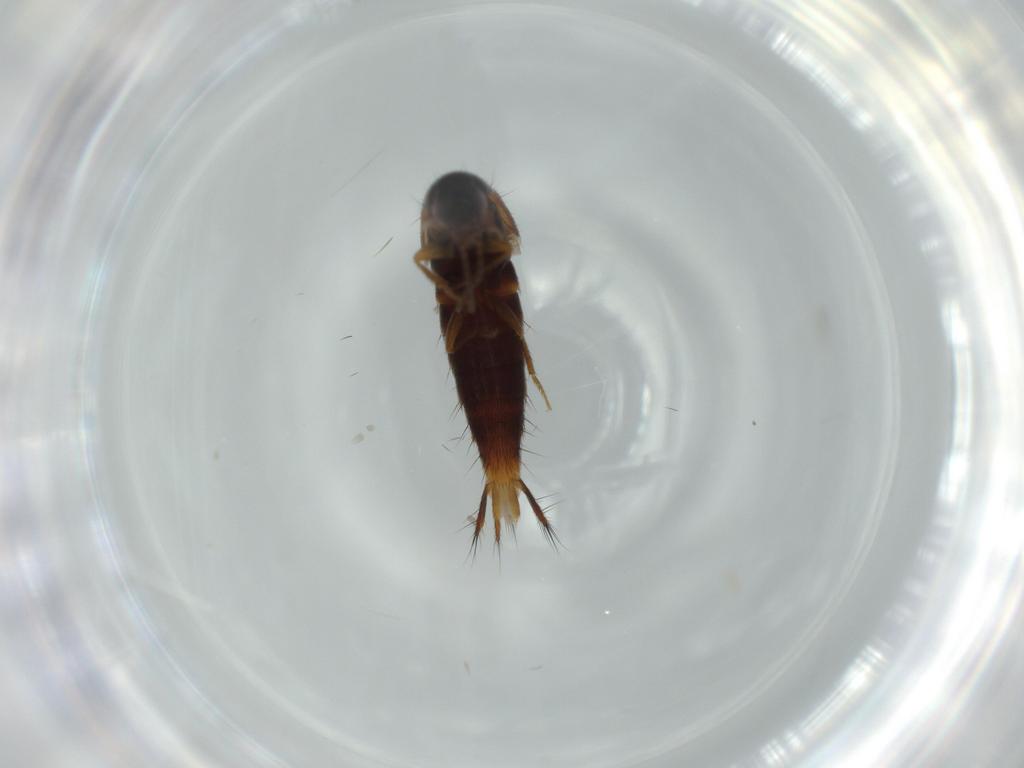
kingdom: Animalia
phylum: Arthropoda
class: Insecta
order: Coleoptera
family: Staphylinidae
